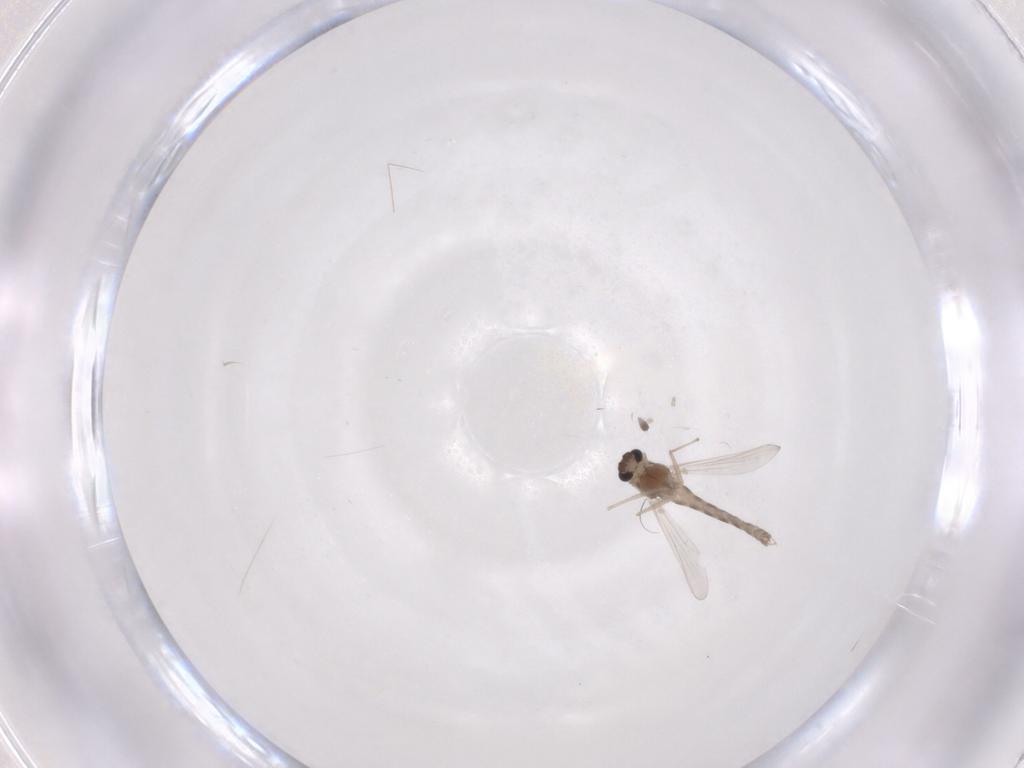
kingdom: Animalia
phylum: Arthropoda
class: Insecta
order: Diptera
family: Chironomidae
